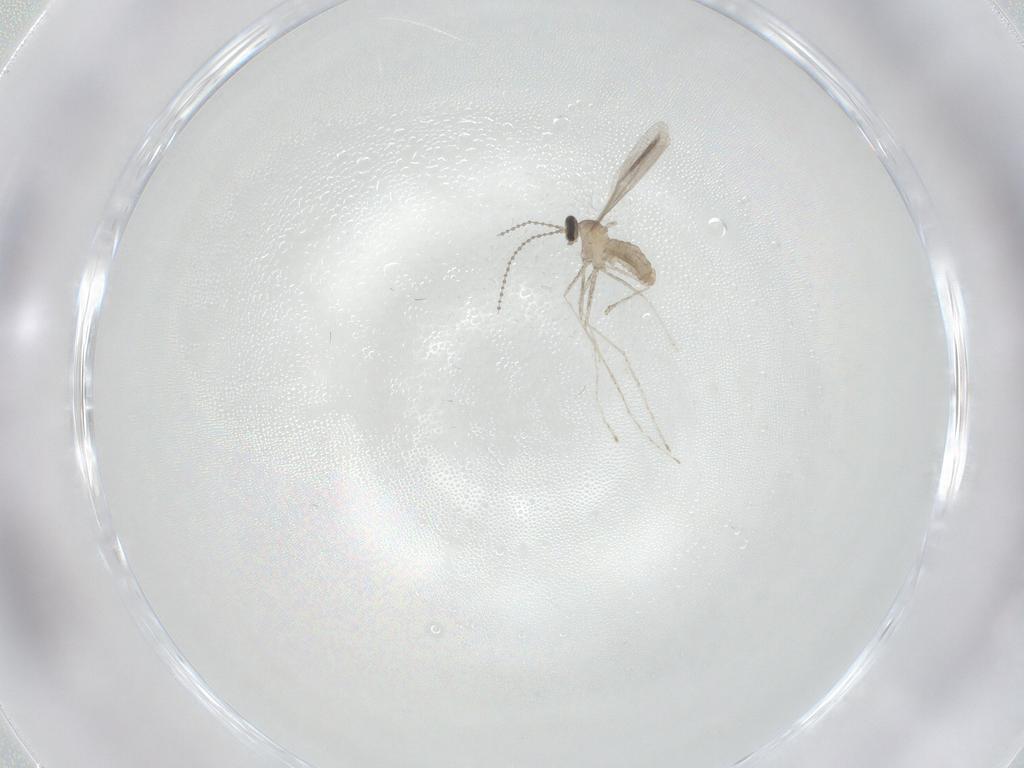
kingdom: Animalia
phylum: Arthropoda
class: Insecta
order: Diptera
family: Cecidomyiidae
